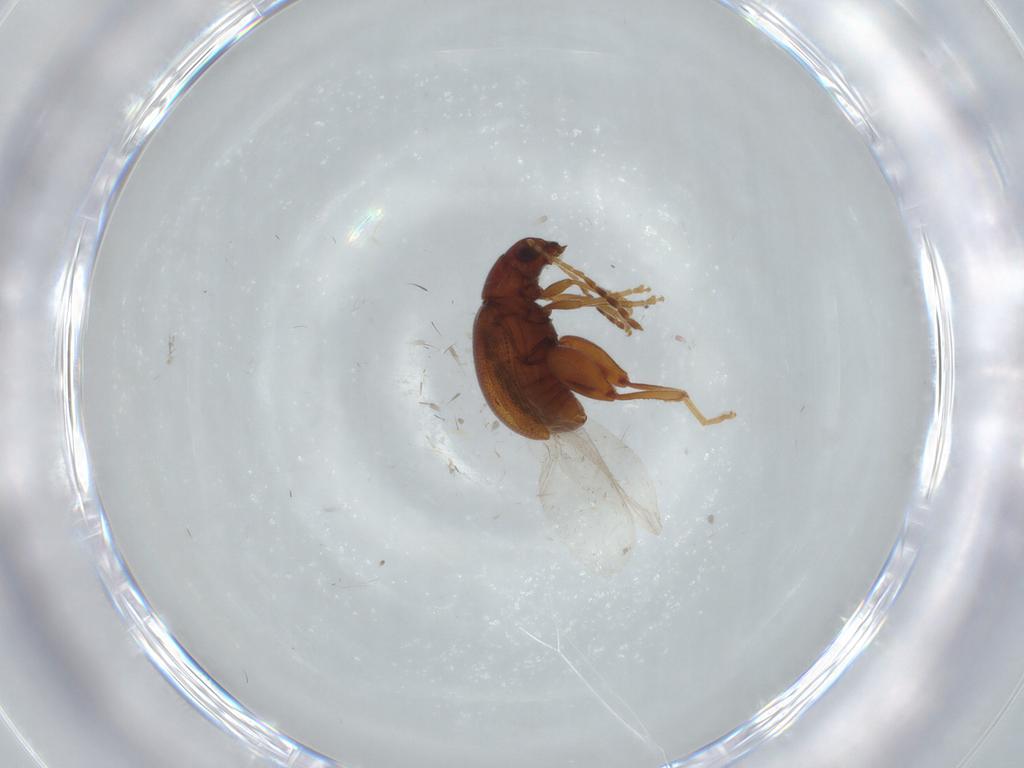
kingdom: Animalia
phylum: Arthropoda
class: Insecta
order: Coleoptera
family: Chrysomelidae
